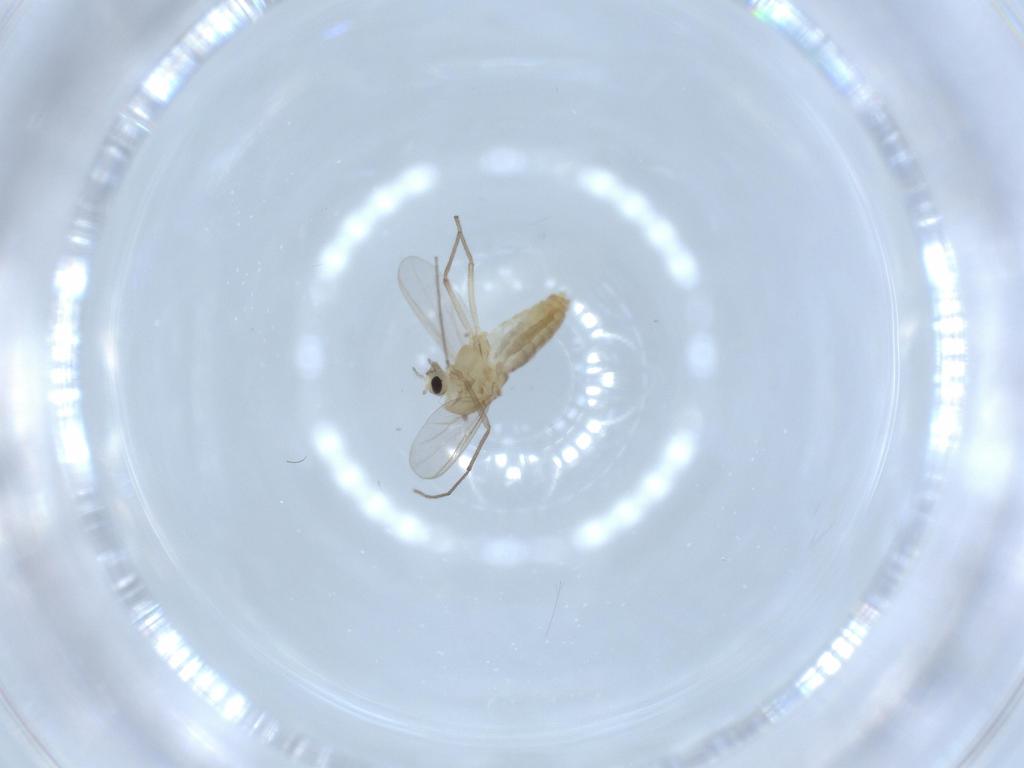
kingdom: Animalia
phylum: Arthropoda
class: Insecta
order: Diptera
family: Chironomidae
